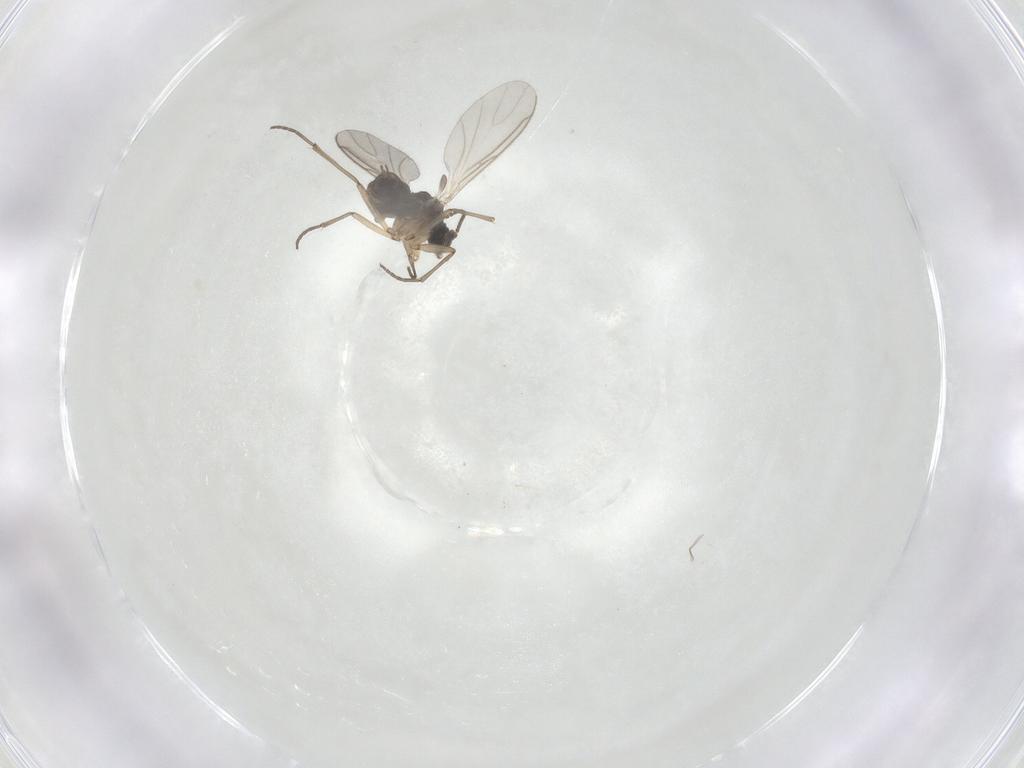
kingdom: Animalia
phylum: Arthropoda
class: Insecta
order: Diptera
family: Sciaridae
